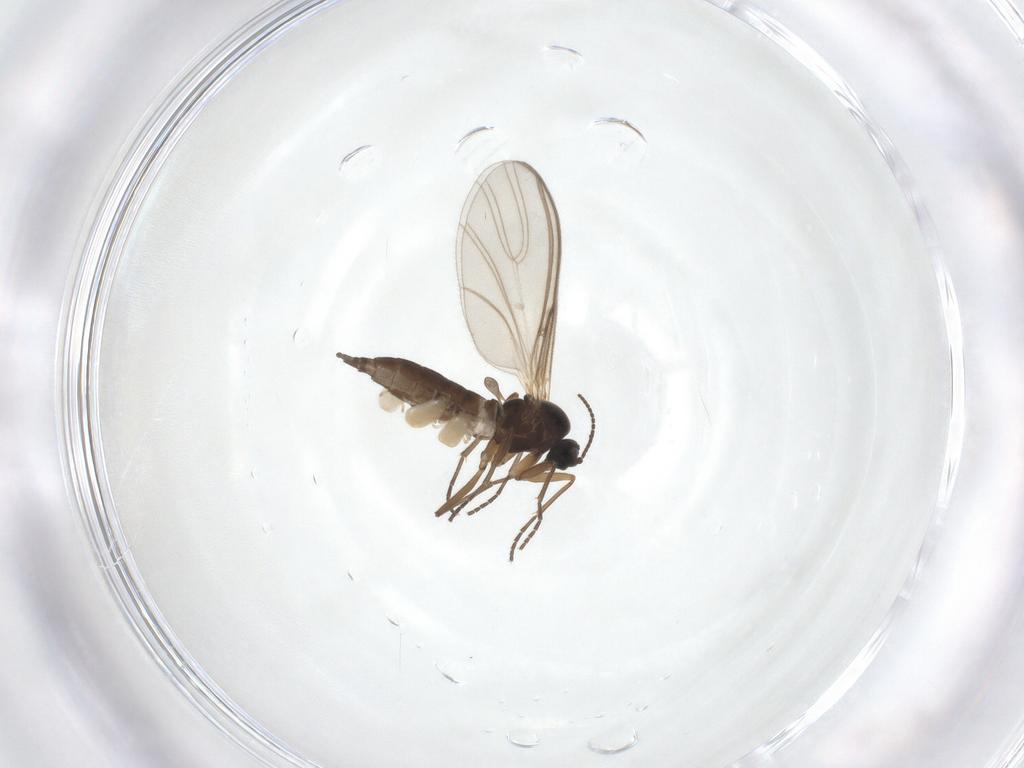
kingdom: Animalia
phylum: Arthropoda
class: Insecta
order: Diptera
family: Sciaridae
